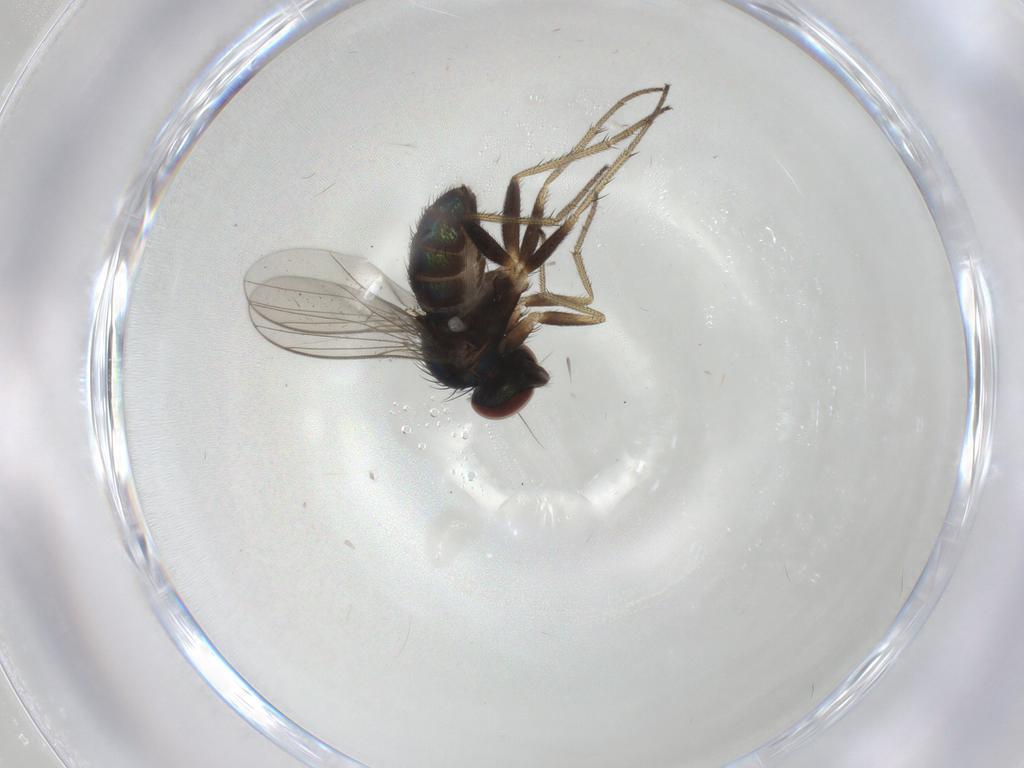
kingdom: Animalia
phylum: Arthropoda
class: Insecta
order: Diptera
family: Dolichopodidae
